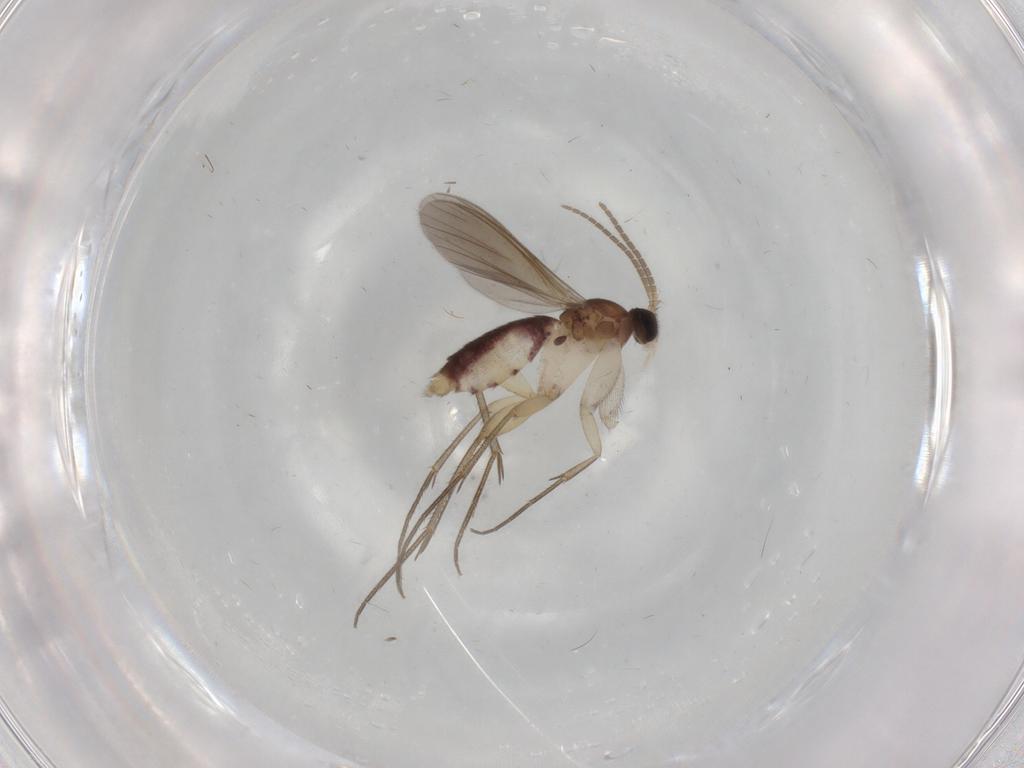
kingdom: Animalia
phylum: Arthropoda
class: Insecta
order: Diptera
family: Mycetophilidae
